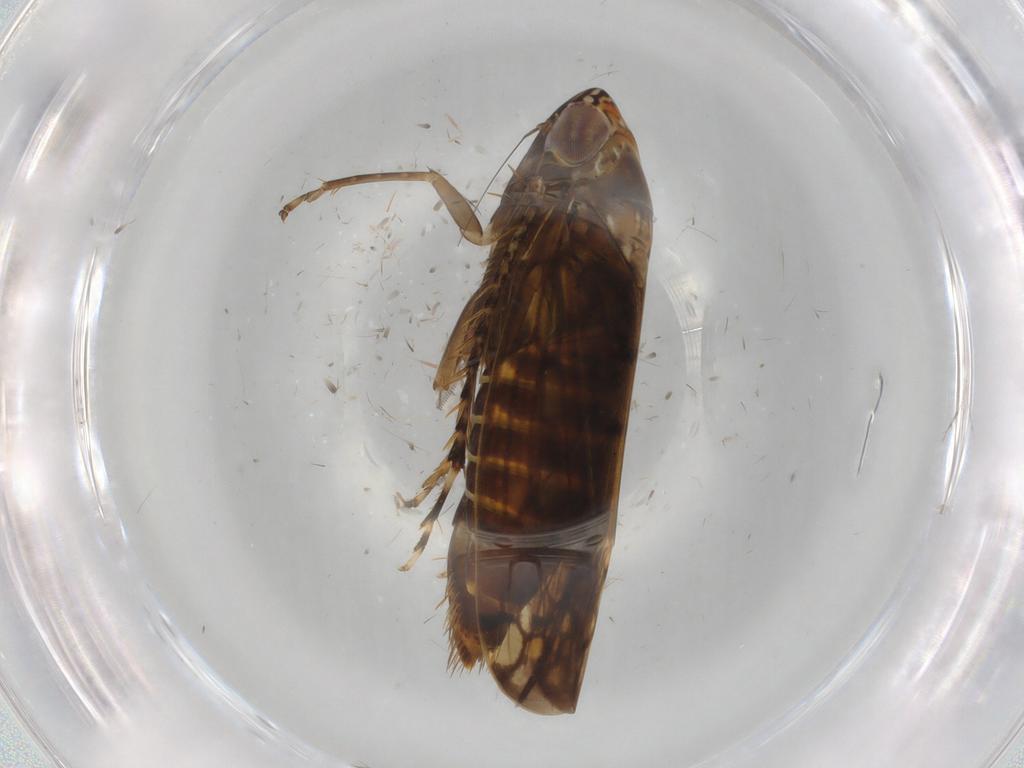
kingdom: Animalia
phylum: Arthropoda
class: Insecta
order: Hemiptera
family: Cicadellidae
